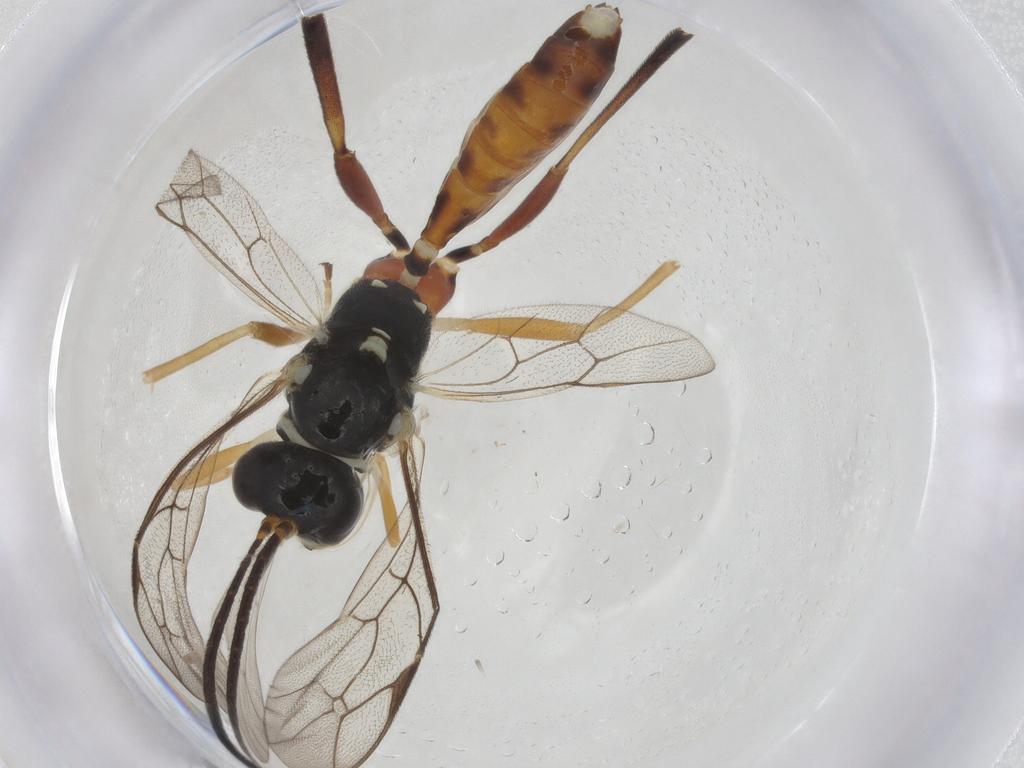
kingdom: Animalia
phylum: Arthropoda
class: Insecta
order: Hymenoptera
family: Ichneumonidae
